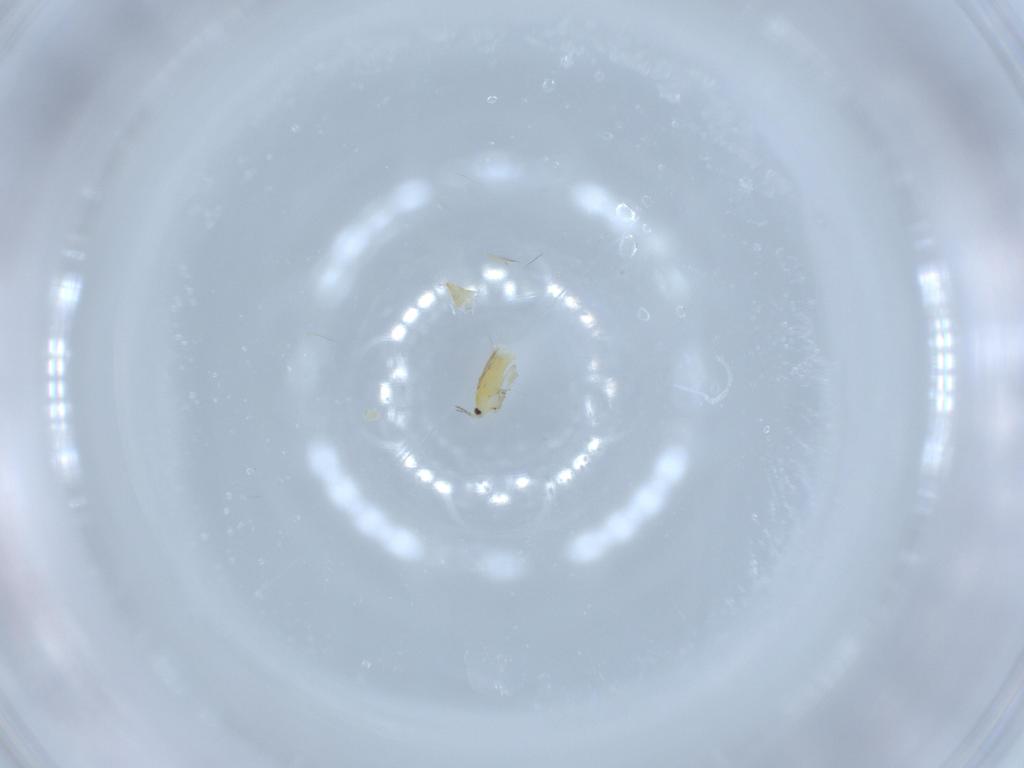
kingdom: Animalia
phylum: Arthropoda
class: Insecta
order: Thysanoptera
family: Thripidae
